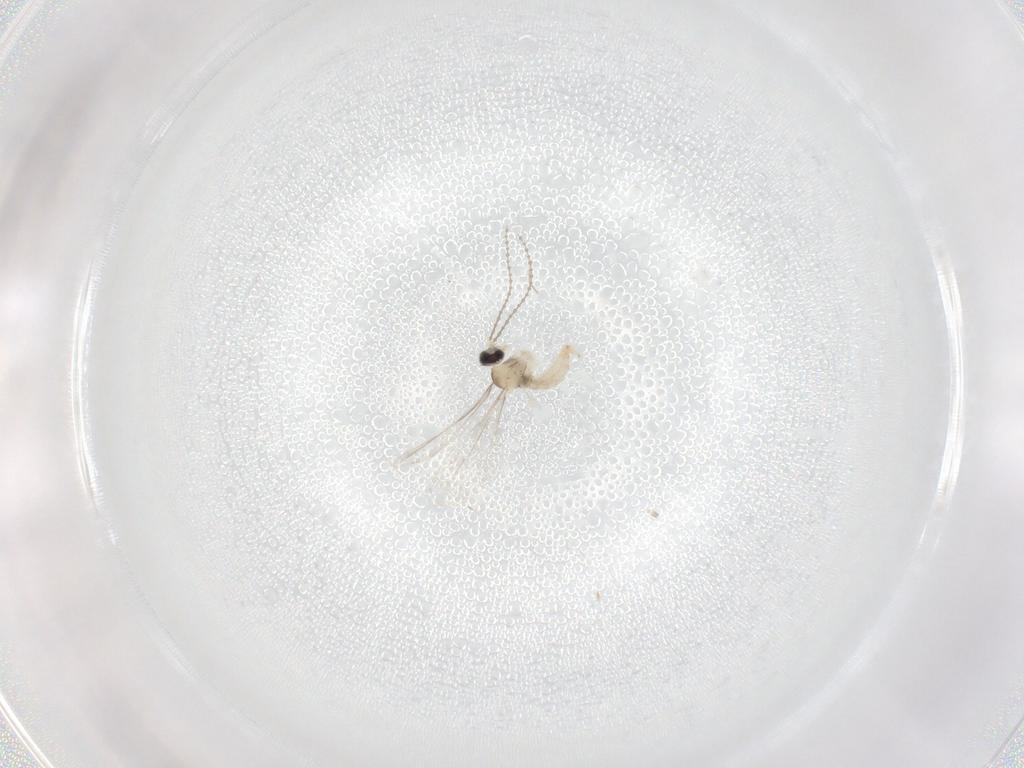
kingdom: Animalia
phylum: Arthropoda
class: Insecta
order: Diptera
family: Cecidomyiidae
